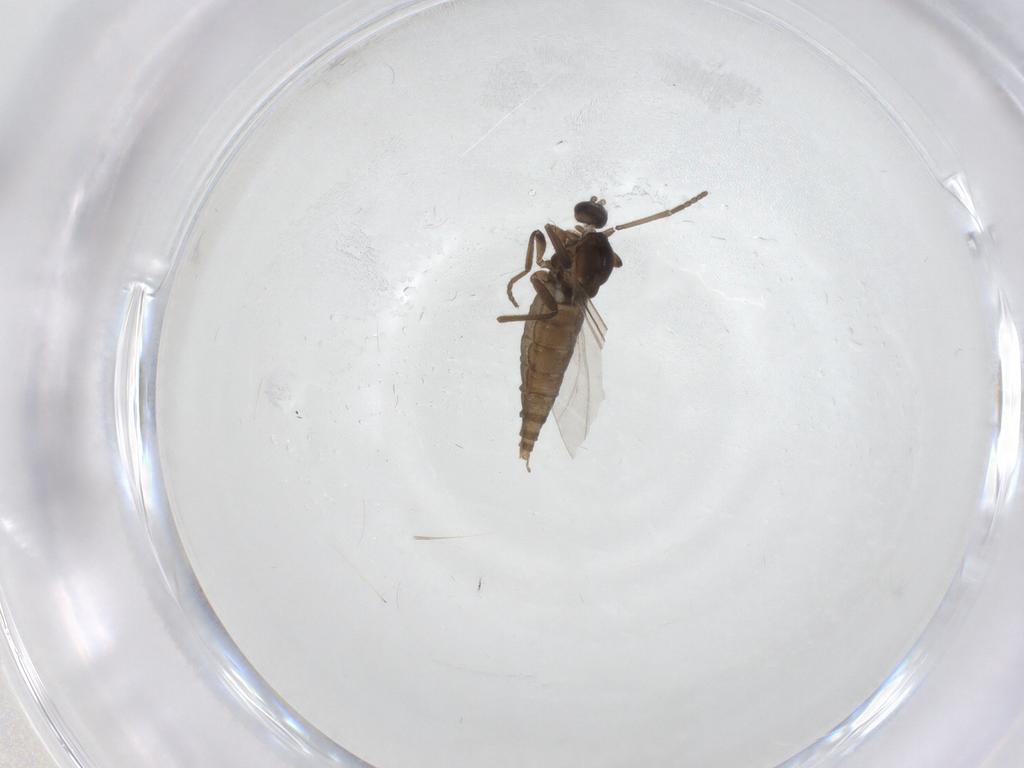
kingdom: Animalia
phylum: Arthropoda
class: Insecta
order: Diptera
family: Cecidomyiidae
